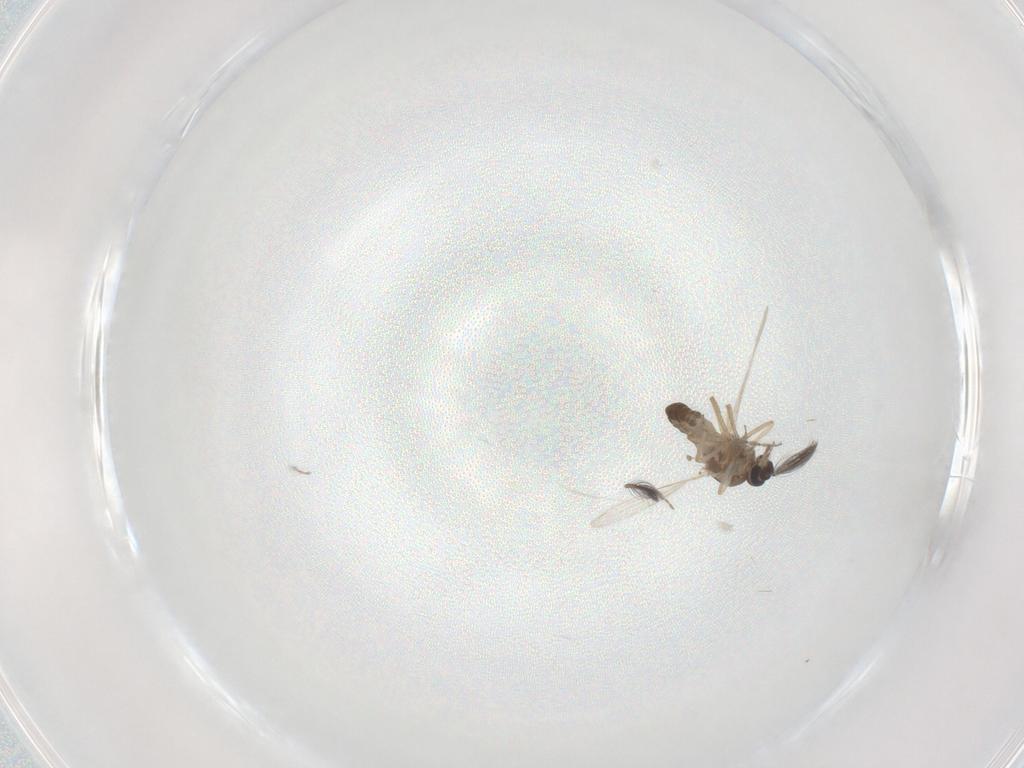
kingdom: Animalia
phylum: Arthropoda
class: Insecta
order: Diptera
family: Ceratopogonidae
